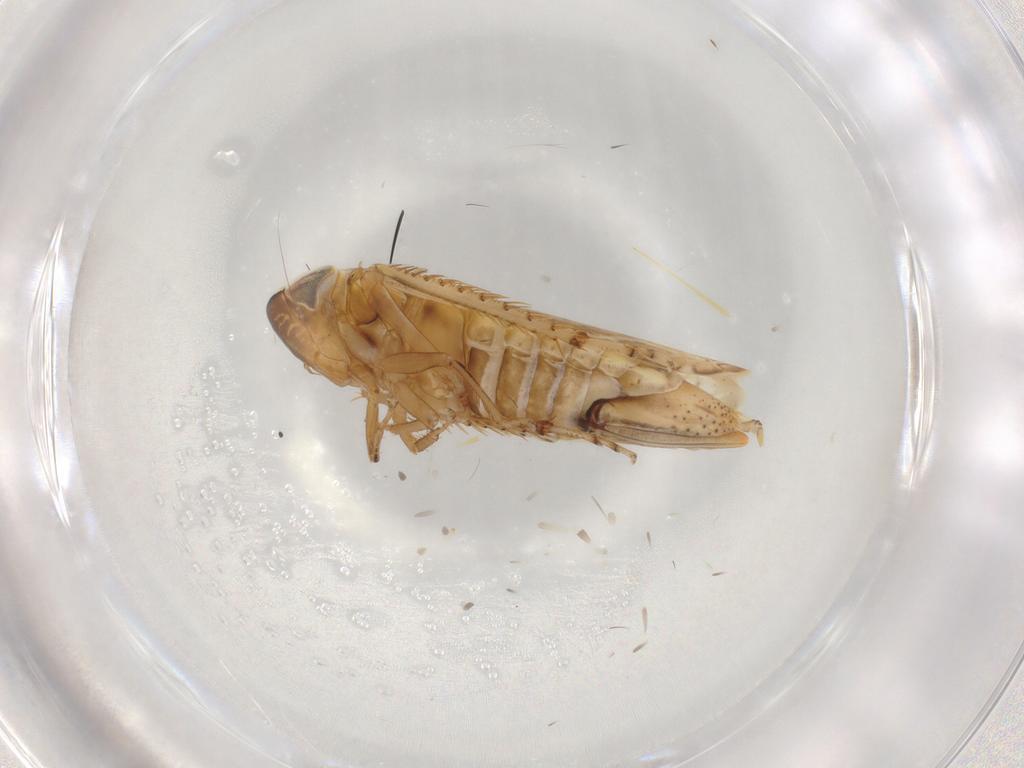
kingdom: Animalia
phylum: Arthropoda
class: Insecta
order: Hemiptera
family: Cicadellidae
